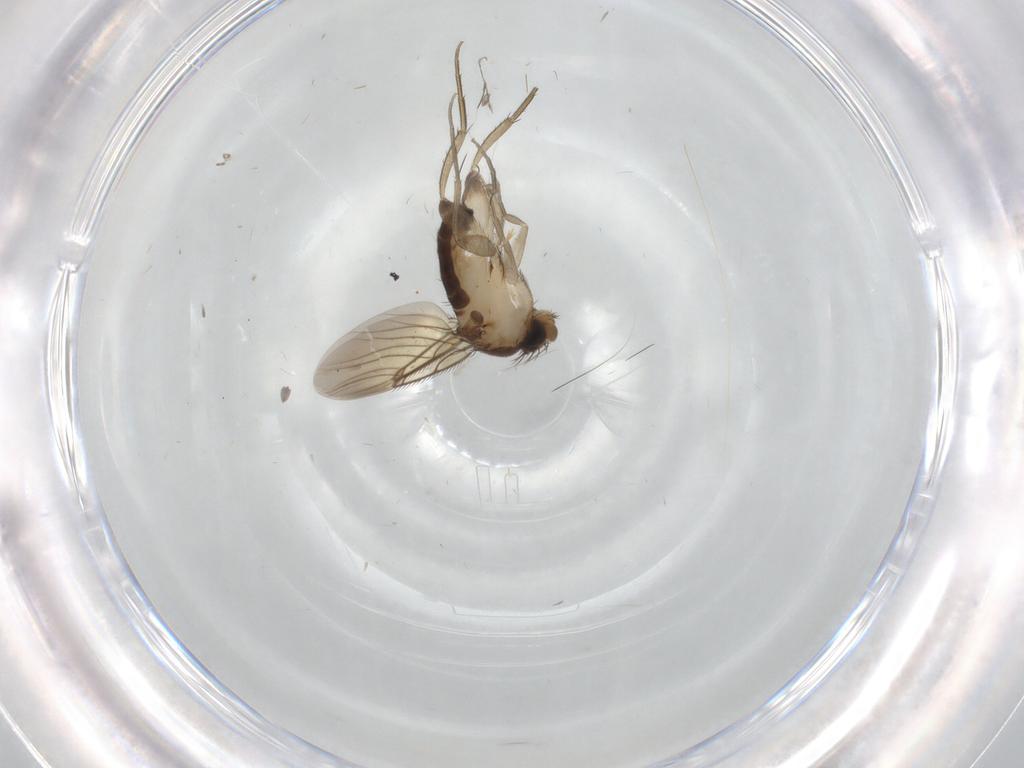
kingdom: Animalia
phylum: Arthropoda
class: Insecta
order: Diptera
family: Phoridae
